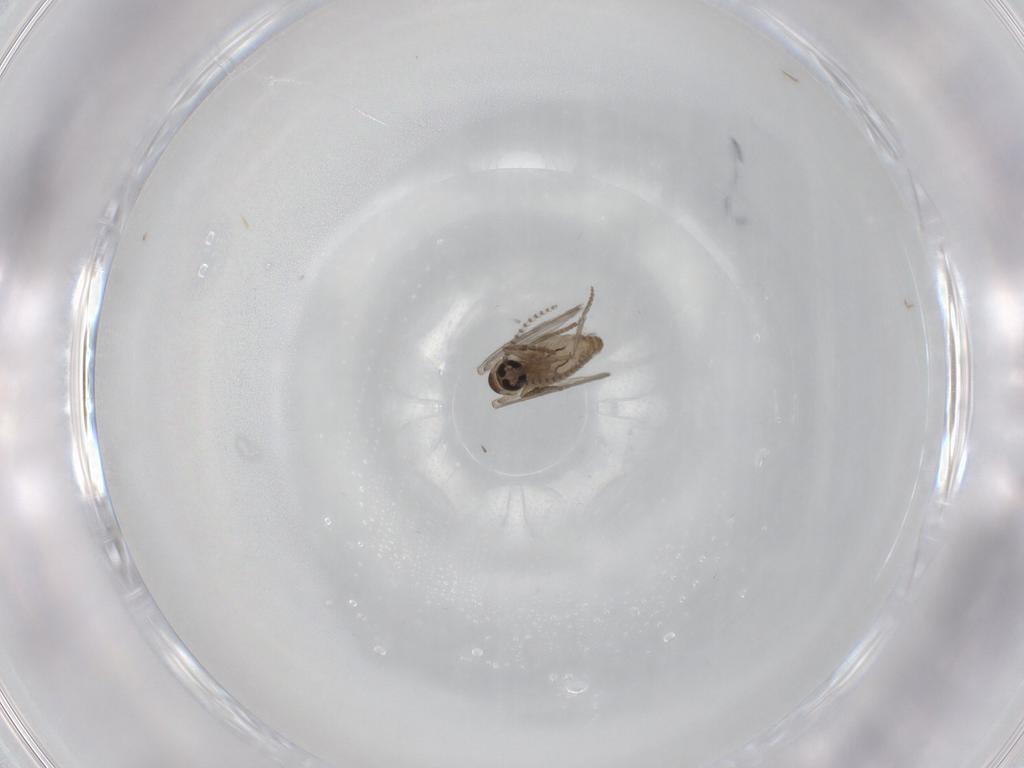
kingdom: Animalia
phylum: Arthropoda
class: Insecta
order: Diptera
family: Psychodidae
